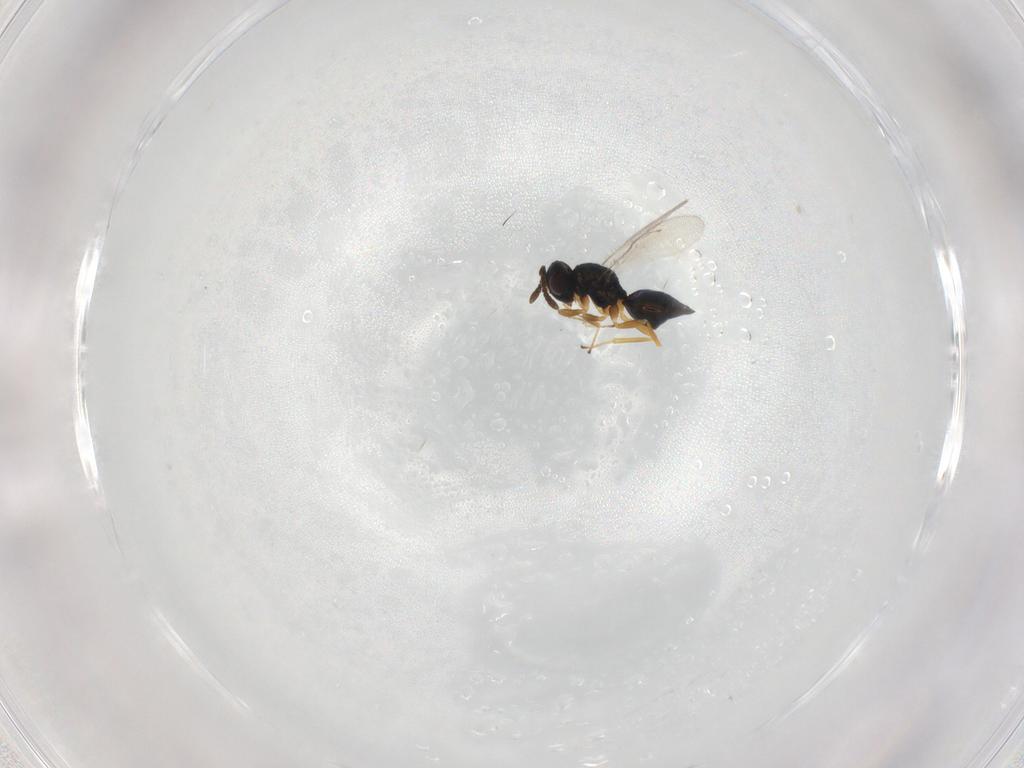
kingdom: Animalia
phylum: Arthropoda
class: Insecta
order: Hymenoptera
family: Pteromalidae
